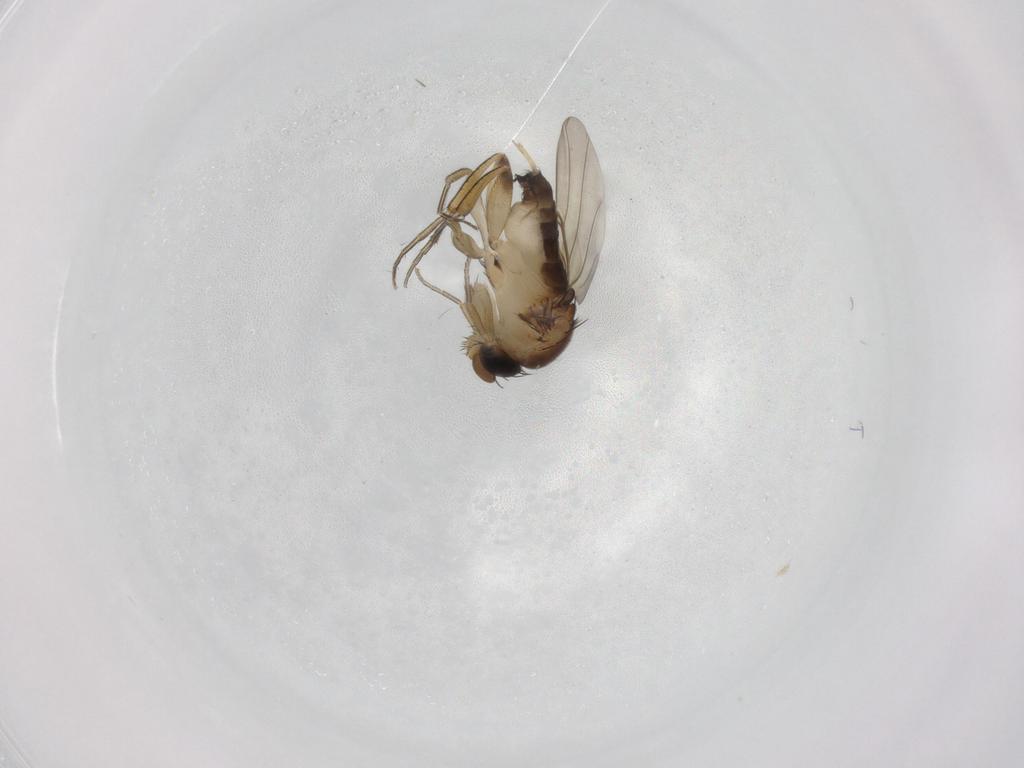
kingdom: Animalia
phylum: Arthropoda
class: Insecta
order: Diptera
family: Phoridae
